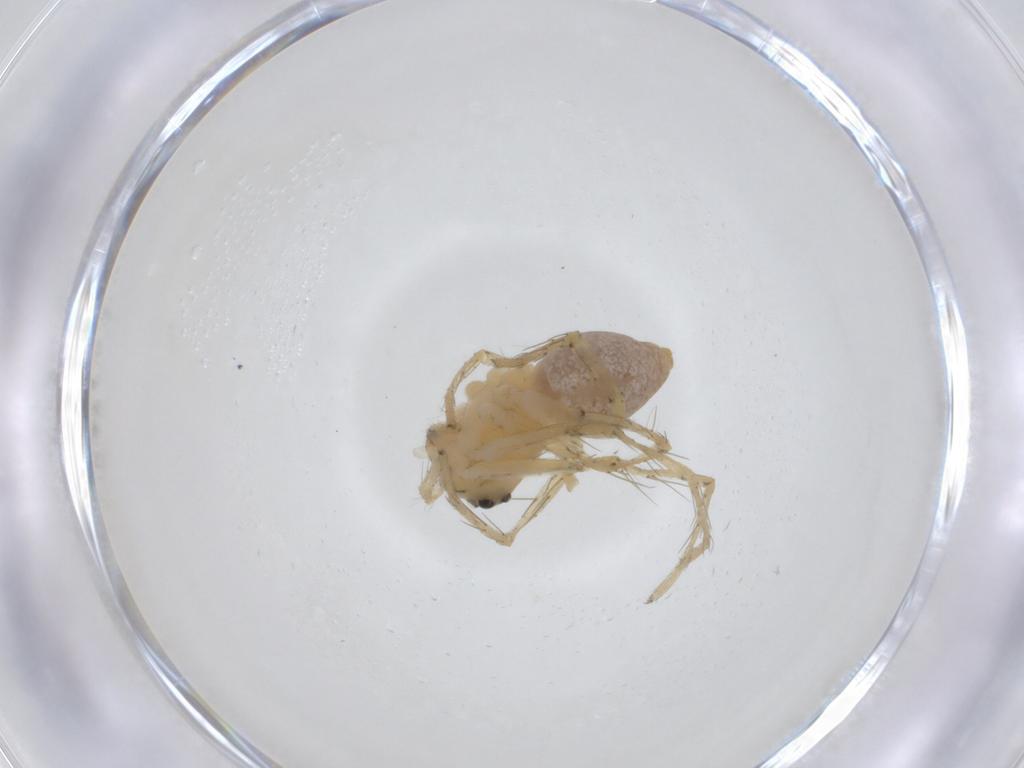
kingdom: Animalia
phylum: Arthropoda
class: Arachnida
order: Araneae
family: Oxyopidae
